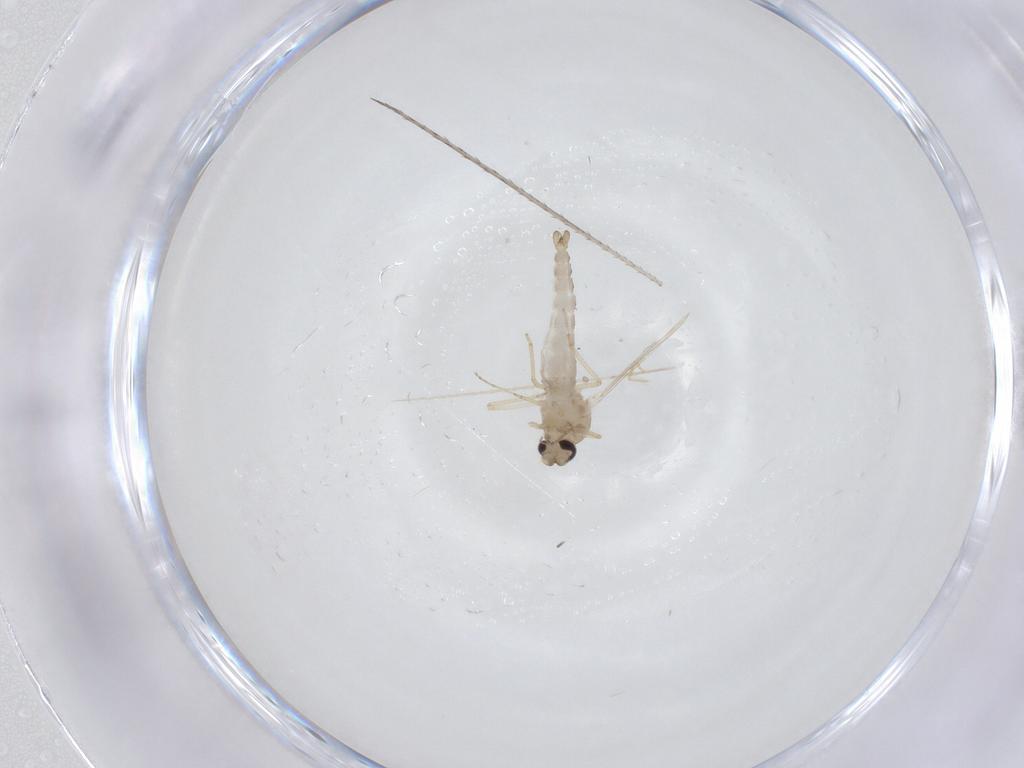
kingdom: Animalia
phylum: Arthropoda
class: Insecta
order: Diptera
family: Ceratopogonidae
